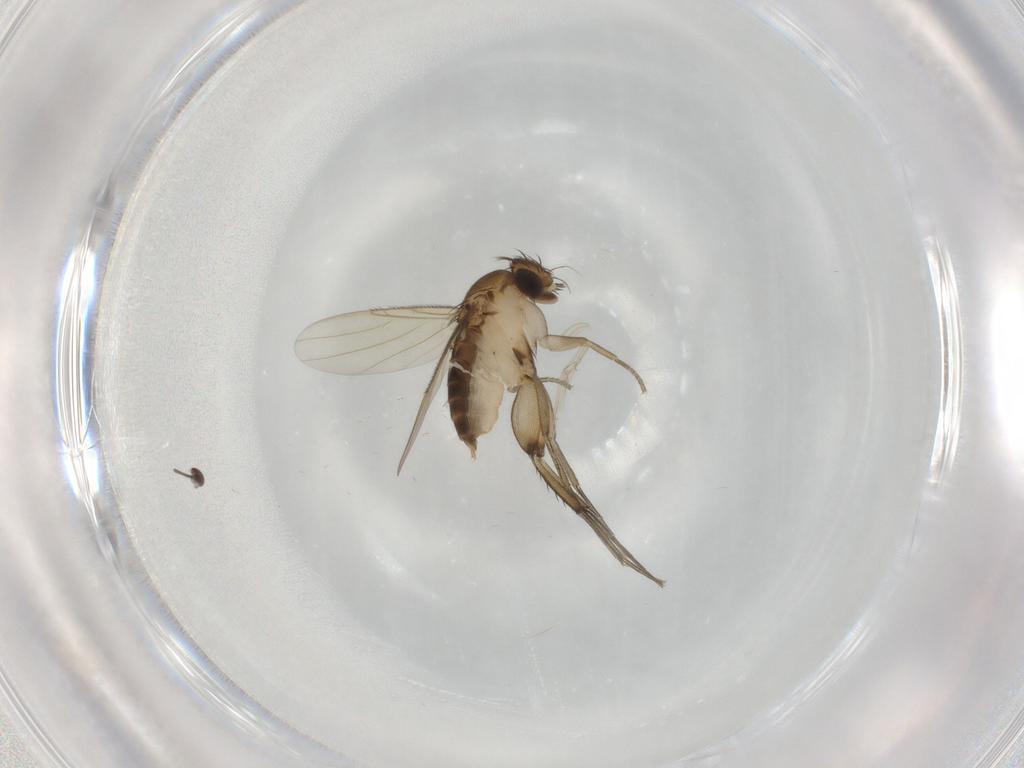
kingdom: Animalia
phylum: Arthropoda
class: Insecta
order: Diptera
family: Phoridae
